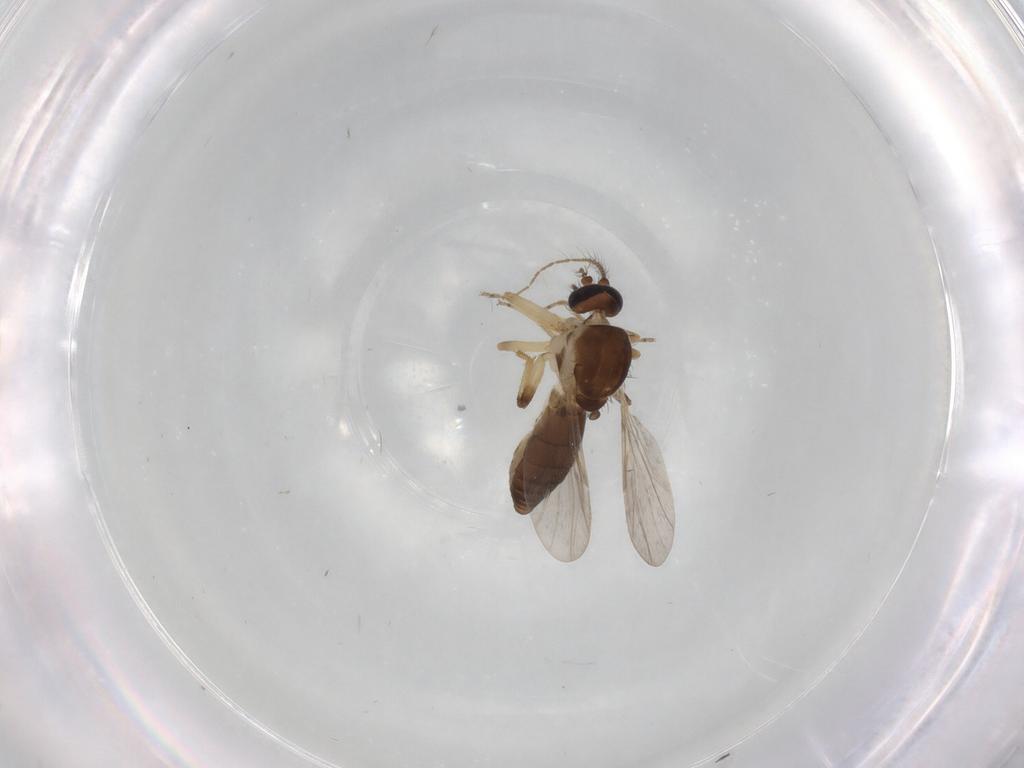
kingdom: Animalia
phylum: Arthropoda
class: Insecta
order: Diptera
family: Phoridae
